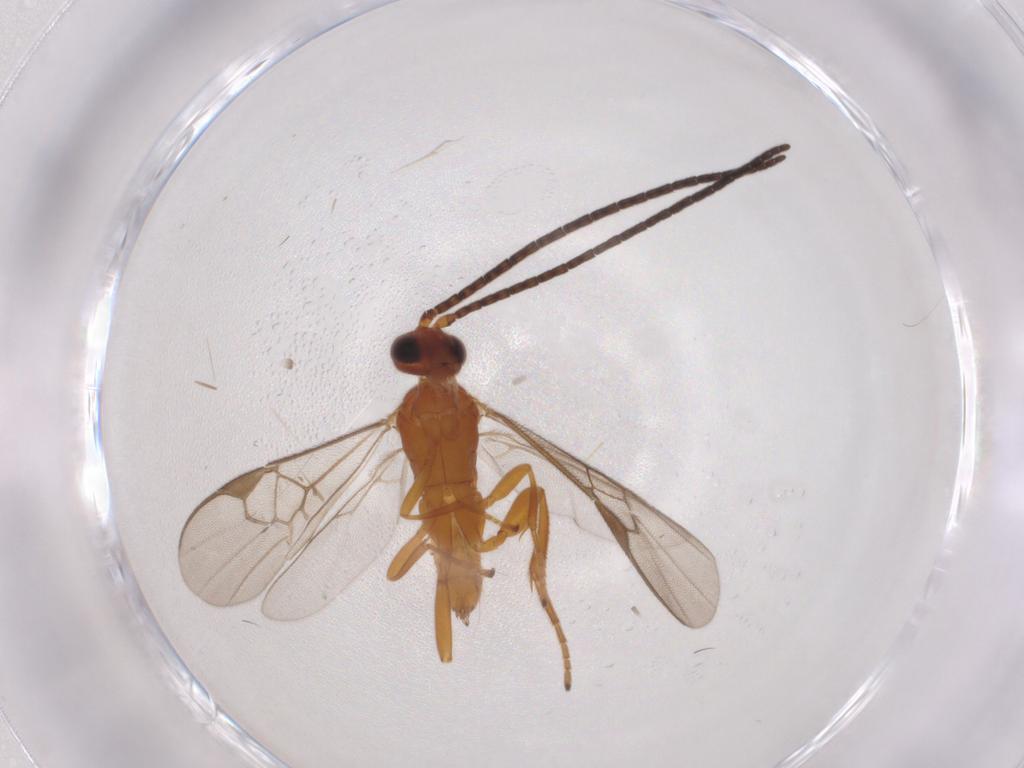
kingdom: Animalia
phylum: Arthropoda
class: Insecta
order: Hymenoptera
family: Braconidae
